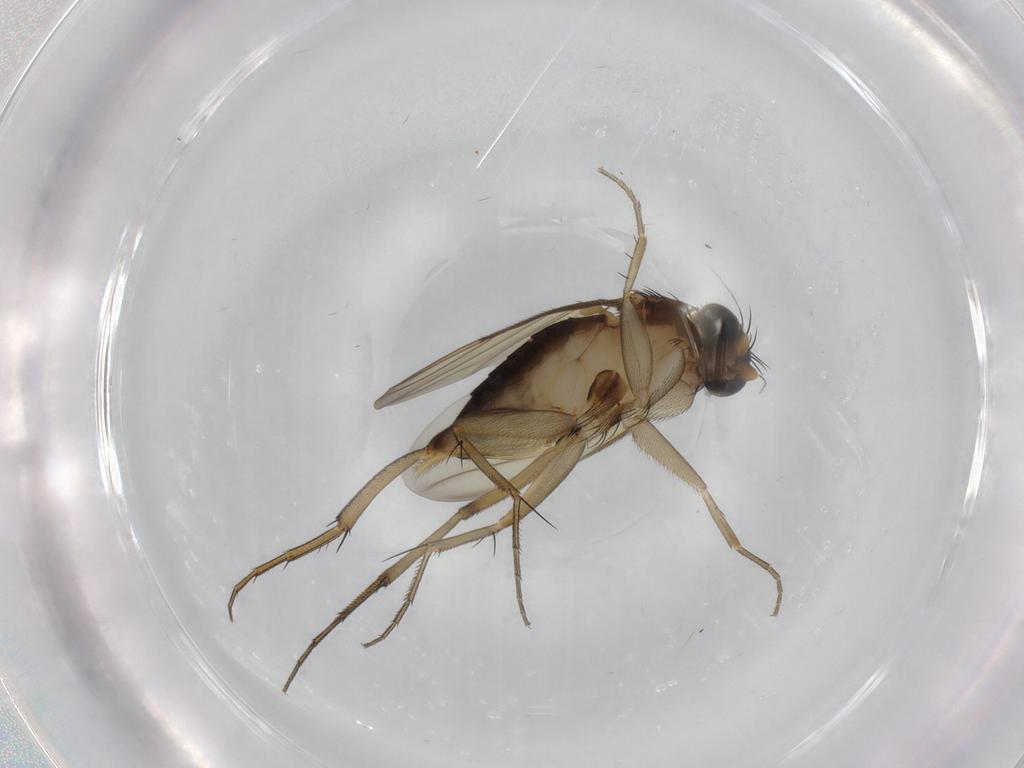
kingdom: Animalia
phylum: Arthropoda
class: Insecta
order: Diptera
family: Phoridae
